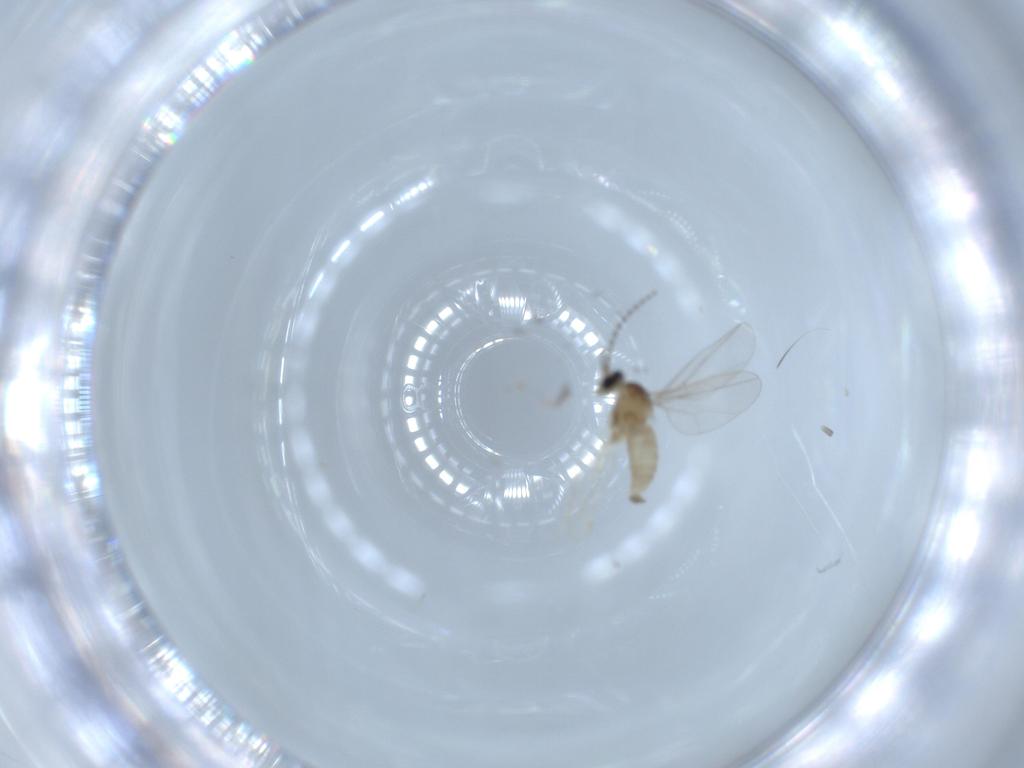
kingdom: Animalia
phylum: Arthropoda
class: Insecta
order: Diptera
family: Cecidomyiidae
